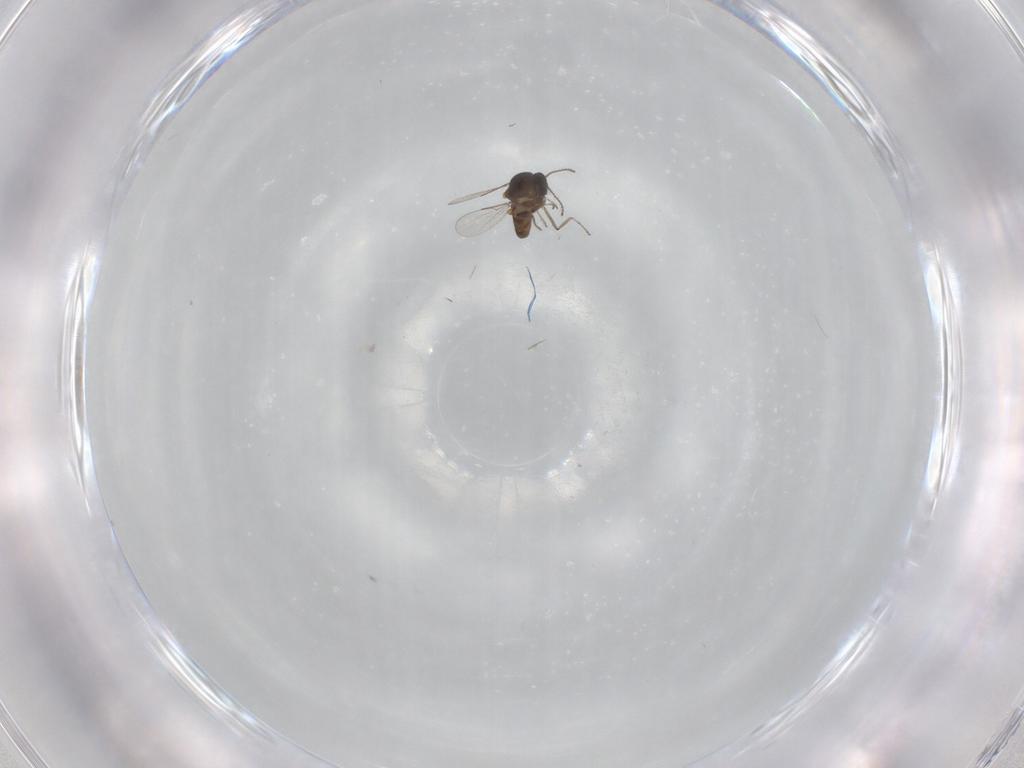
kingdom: Animalia
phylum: Arthropoda
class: Insecta
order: Diptera
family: Ceratopogonidae
